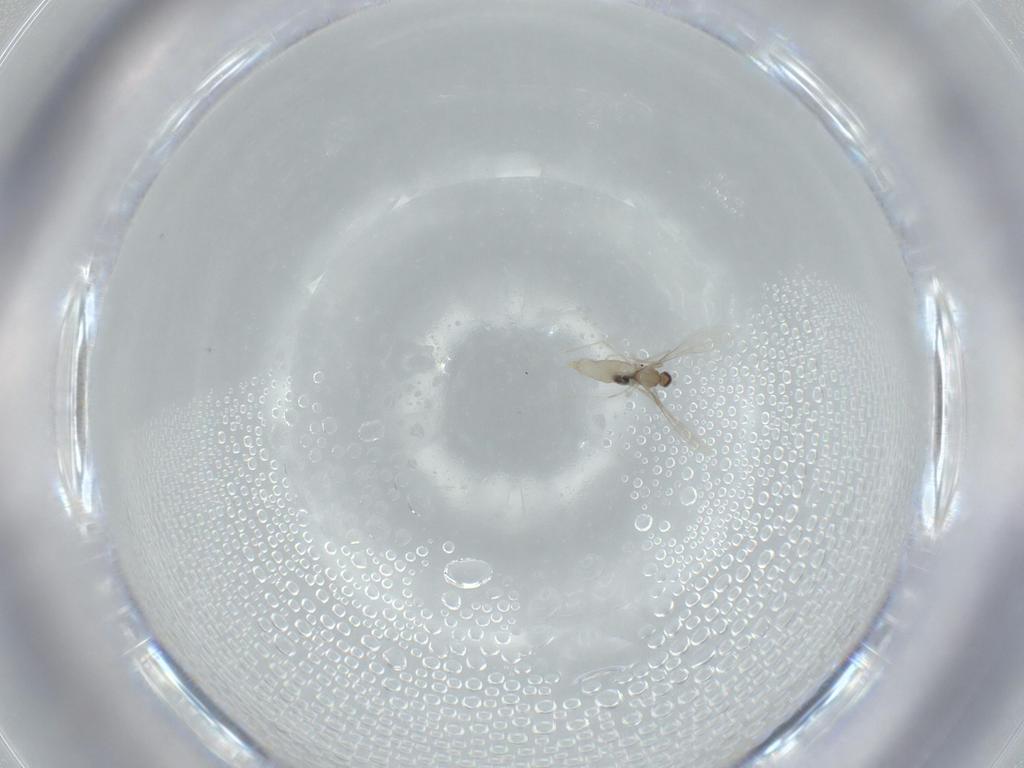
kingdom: Animalia
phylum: Arthropoda
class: Insecta
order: Diptera
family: Cecidomyiidae
